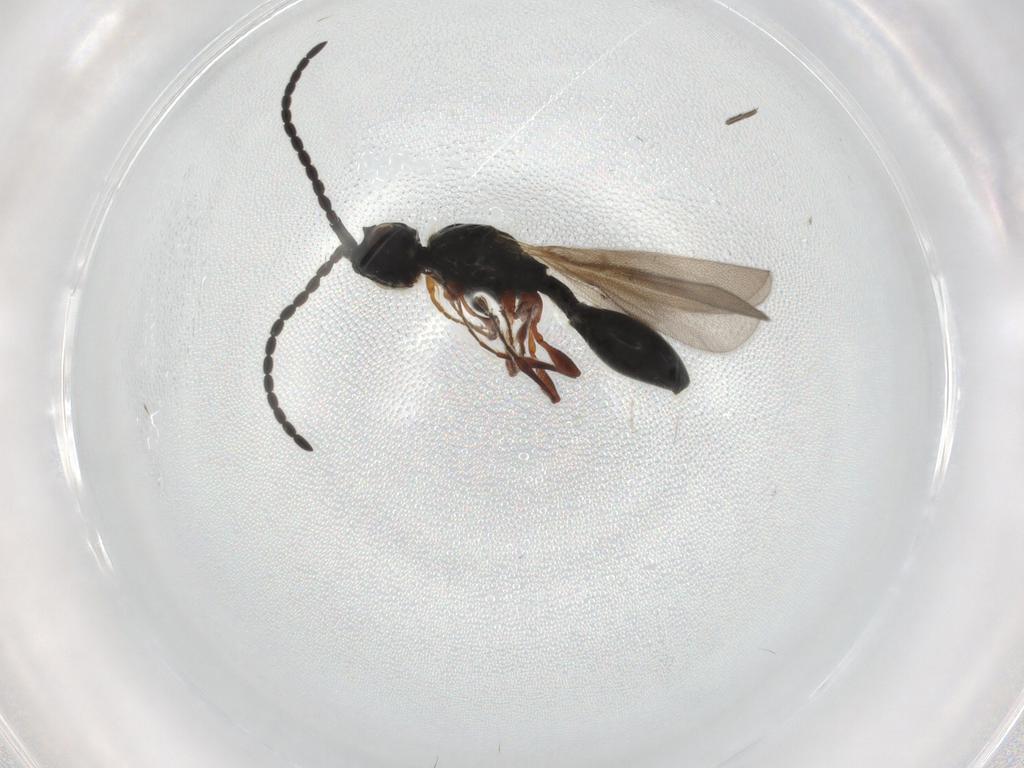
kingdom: Animalia
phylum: Arthropoda
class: Insecta
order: Hymenoptera
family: Diapriidae
